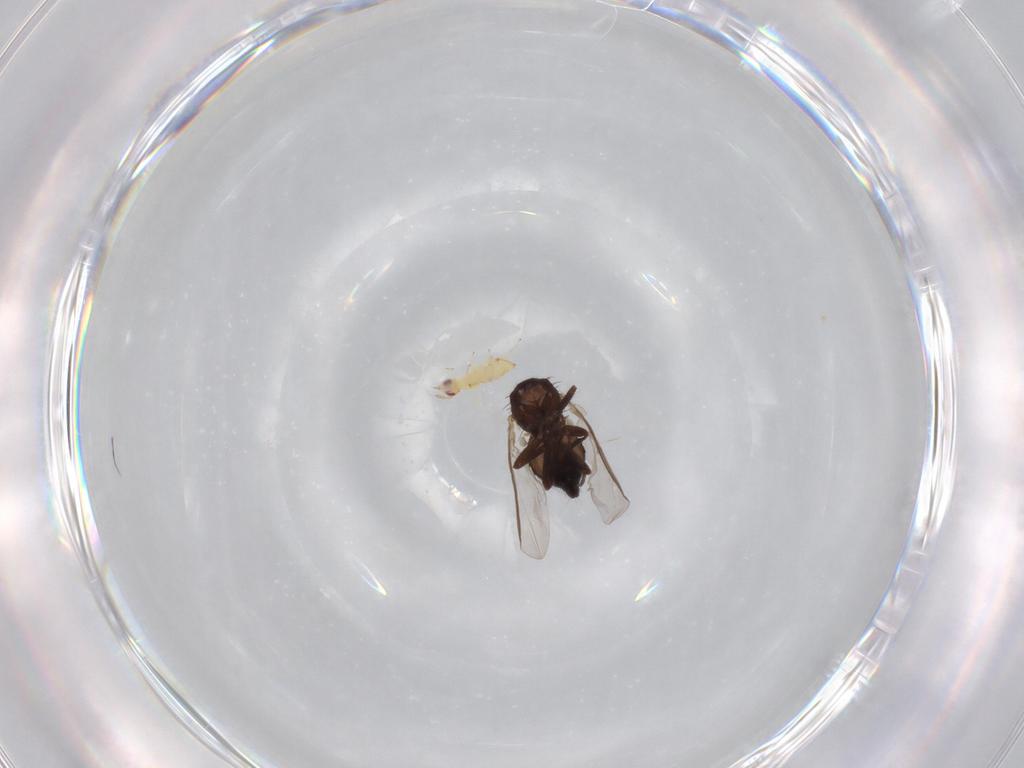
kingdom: Animalia
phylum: Arthropoda
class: Insecta
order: Hymenoptera
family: Trichogrammatidae
